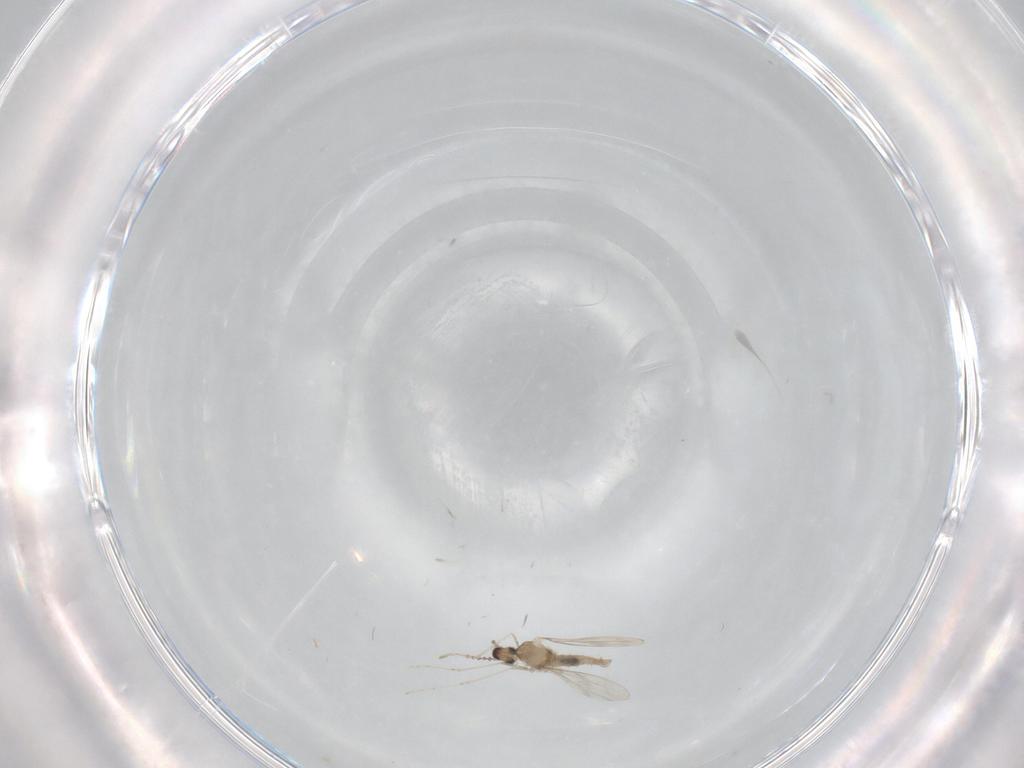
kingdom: Animalia
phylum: Arthropoda
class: Insecta
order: Diptera
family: Cecidomyiidae
